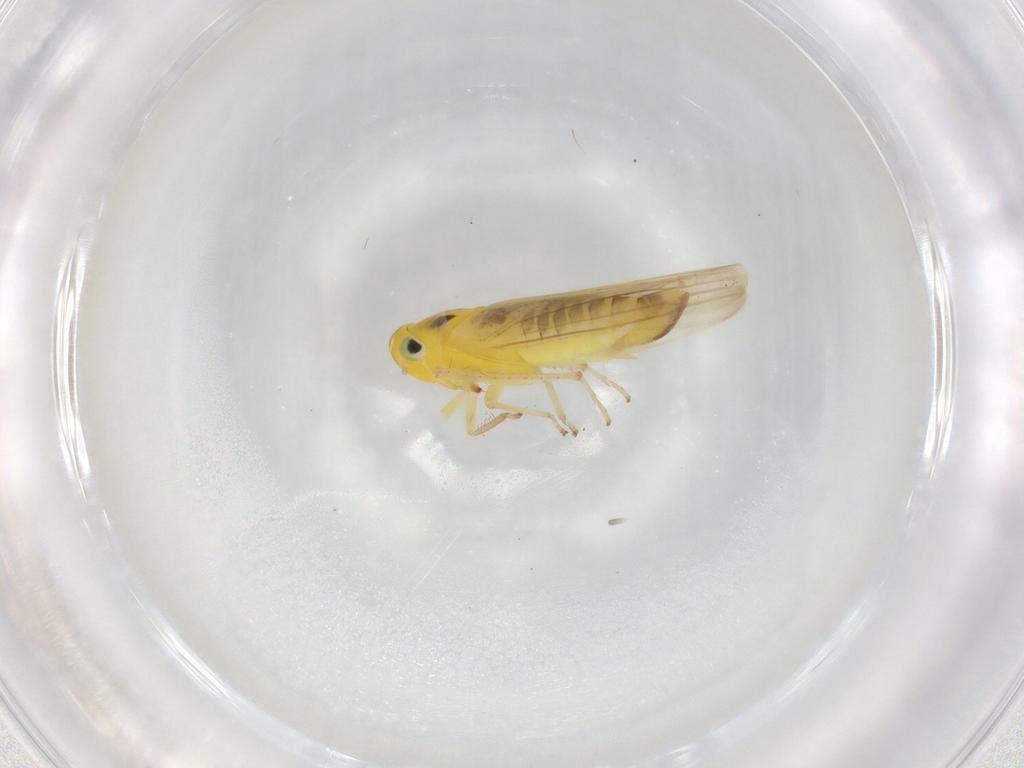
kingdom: Animalia
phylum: Arthropoda
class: Insecta
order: Hemiptera
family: Cicadellidae
